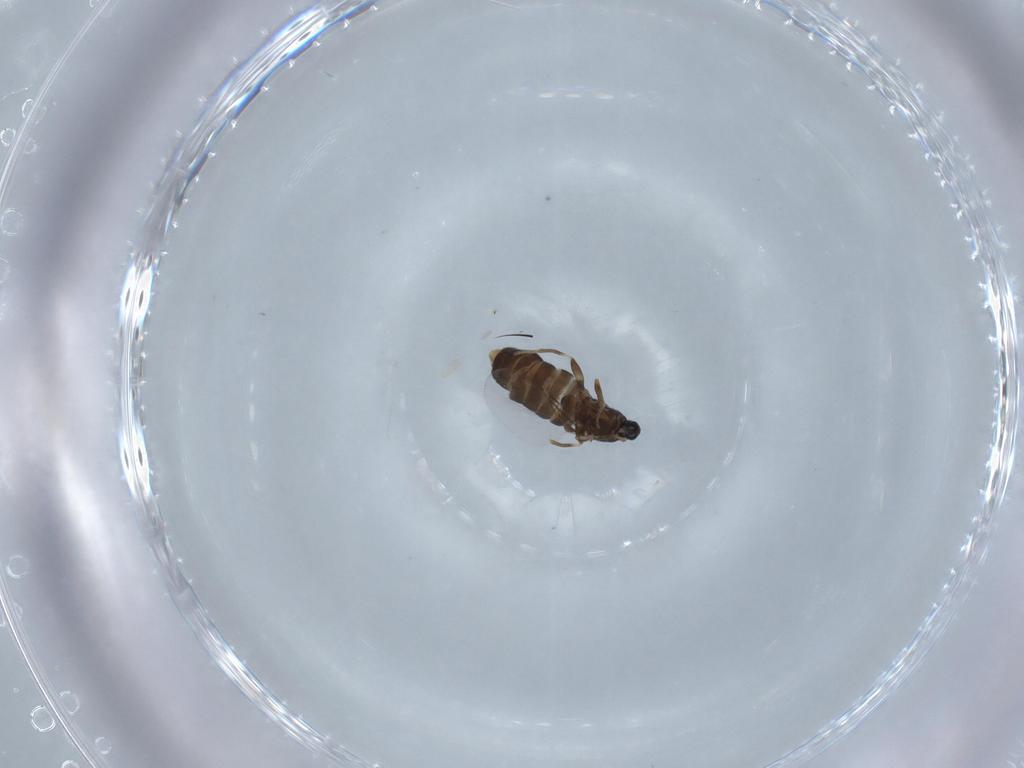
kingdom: Animalia
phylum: Arthropoda
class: Insecta
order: Diptera
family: Scatopsidae
